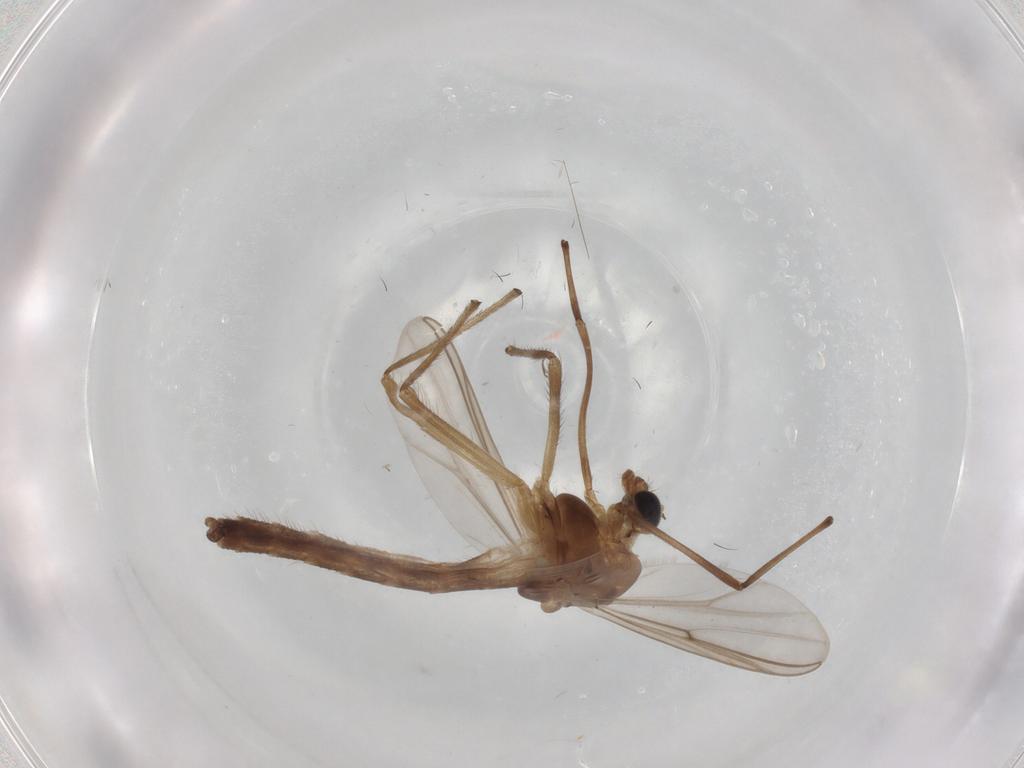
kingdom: Animalia
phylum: Arthropoda
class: Insecta
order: Diptera
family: Chironomidae
